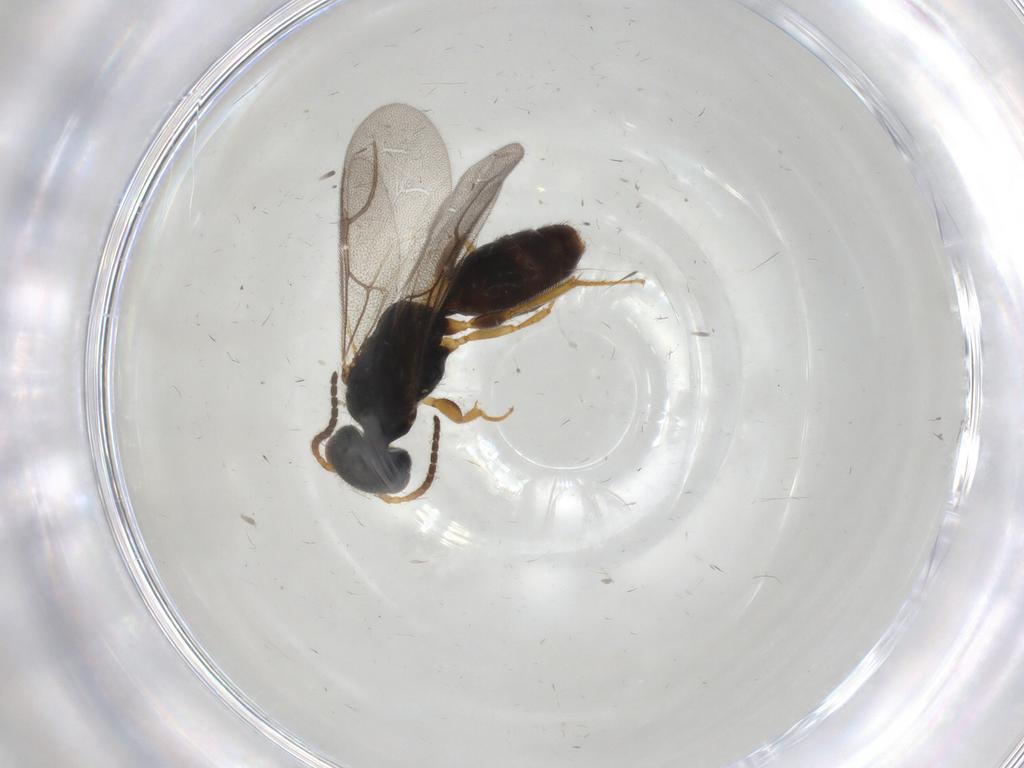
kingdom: Animalia
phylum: Arthropoda
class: Insecta
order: Hymenoptera
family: Bethylidae
